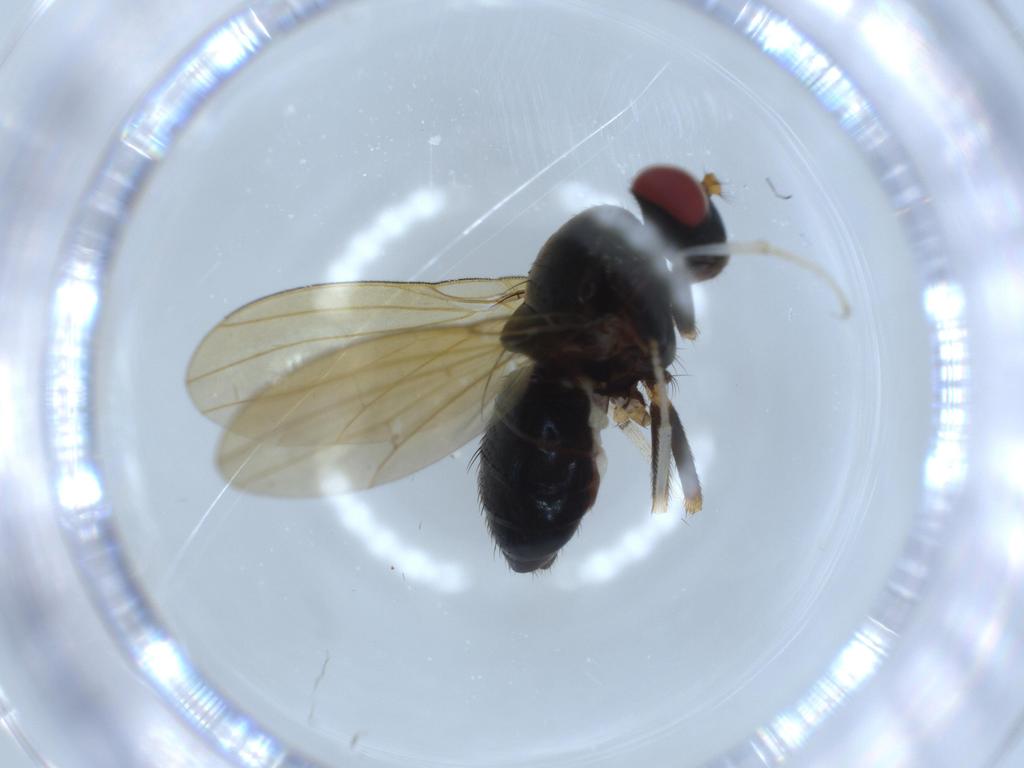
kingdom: Animalia
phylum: Arthropoda
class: Insecta
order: Diptera
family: Lauxaniidae
